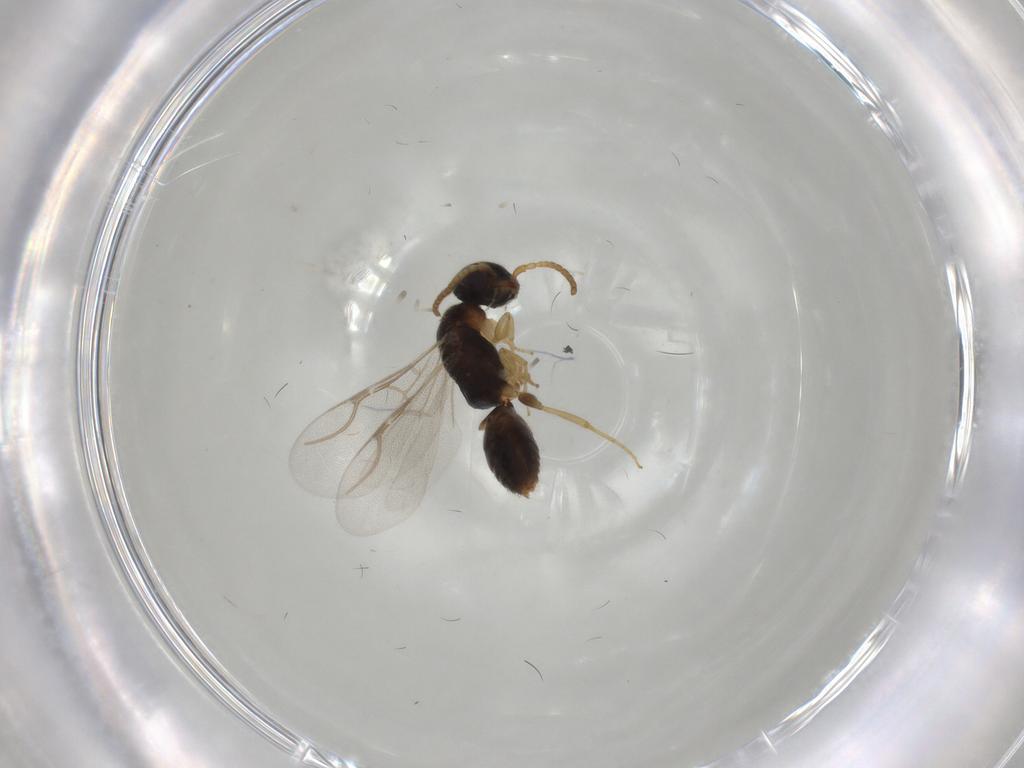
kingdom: Animalia
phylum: Arthropoda
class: Insecta
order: Hymenoptera
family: Bethylidae
